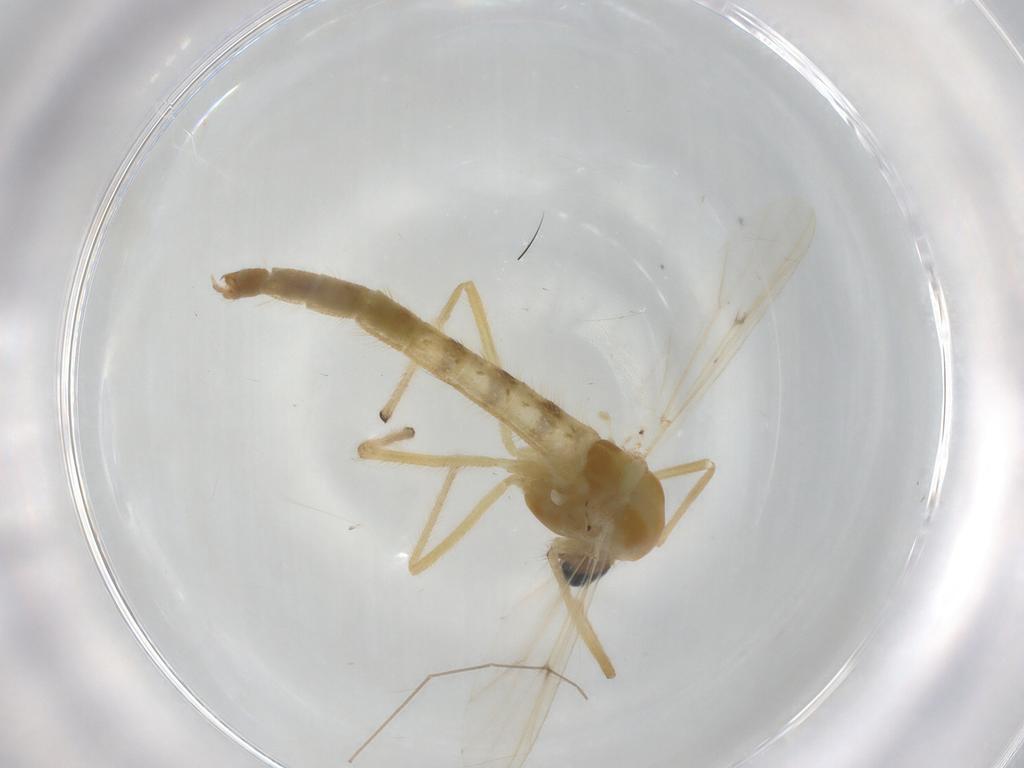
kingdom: Animalia
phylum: Arthropoda
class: Insecta
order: Diptera
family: Chironomidae
